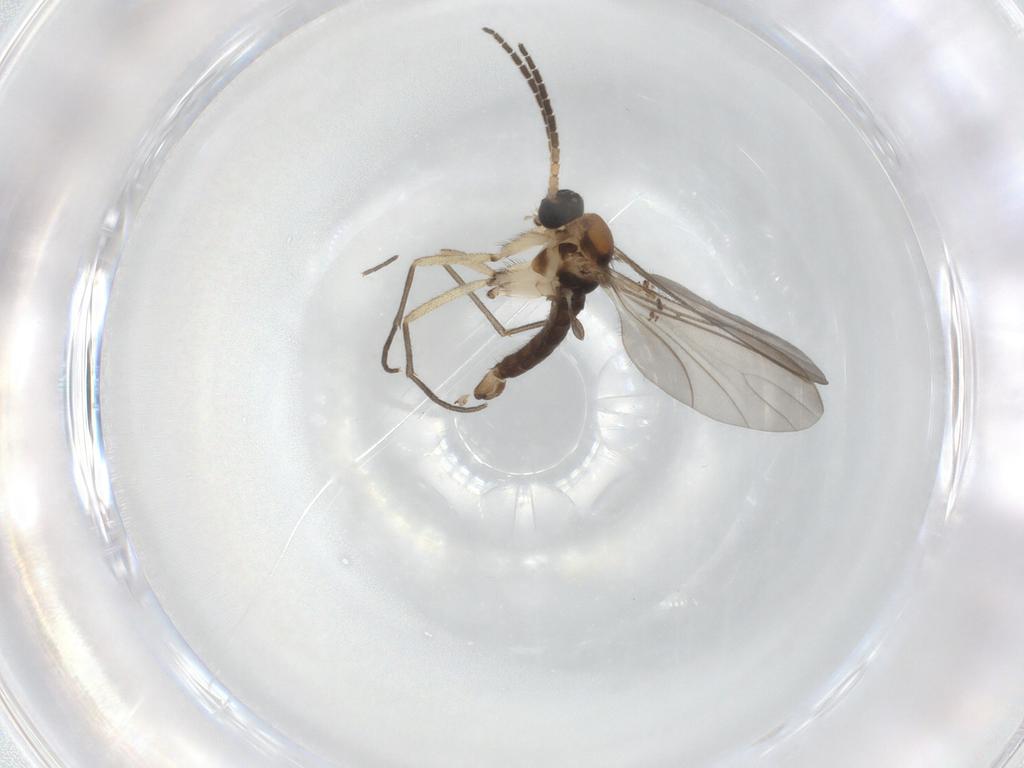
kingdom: Animalia
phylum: Arthropoda
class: Insecta
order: Diptera
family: Sciaridae
